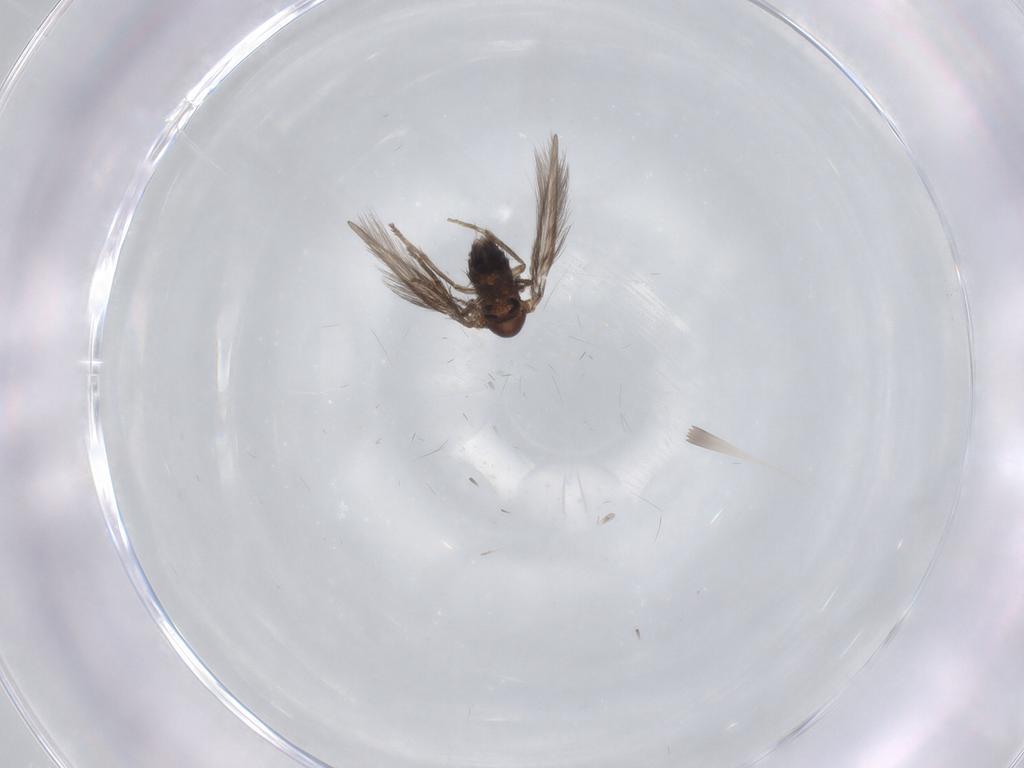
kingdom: Animalia
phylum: Arthropoda
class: Insecta
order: Diptera
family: Psychodidae
